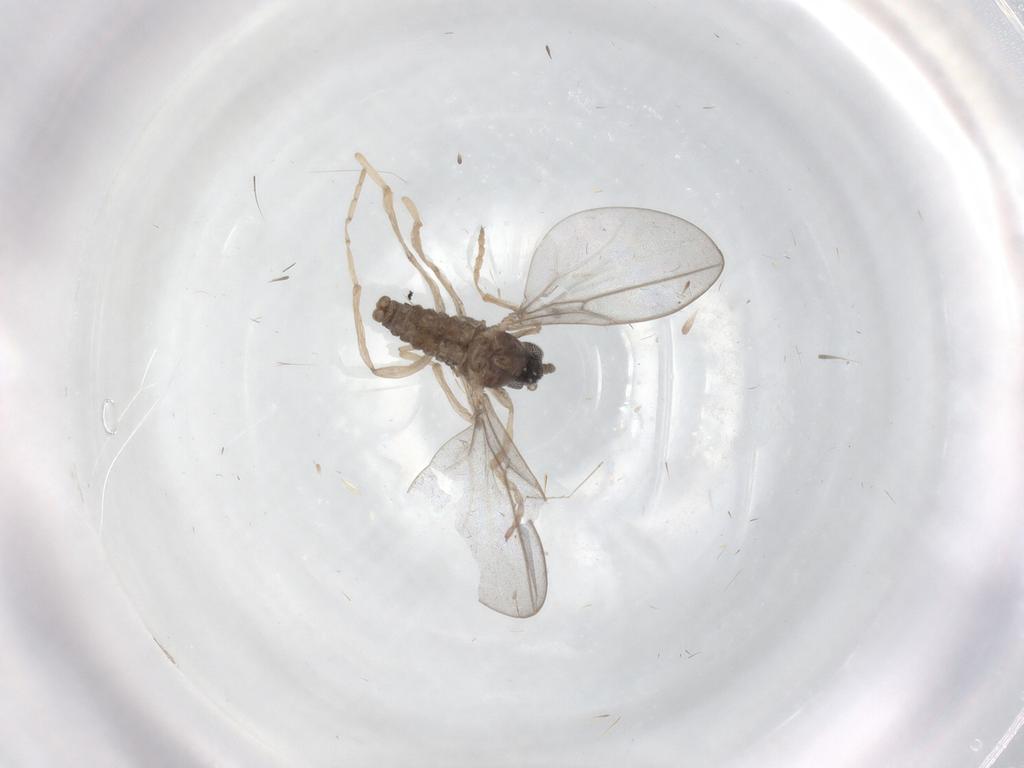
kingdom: Animalia
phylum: Arthropoda
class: Insecta
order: Diptera
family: Cecidomyiidae
